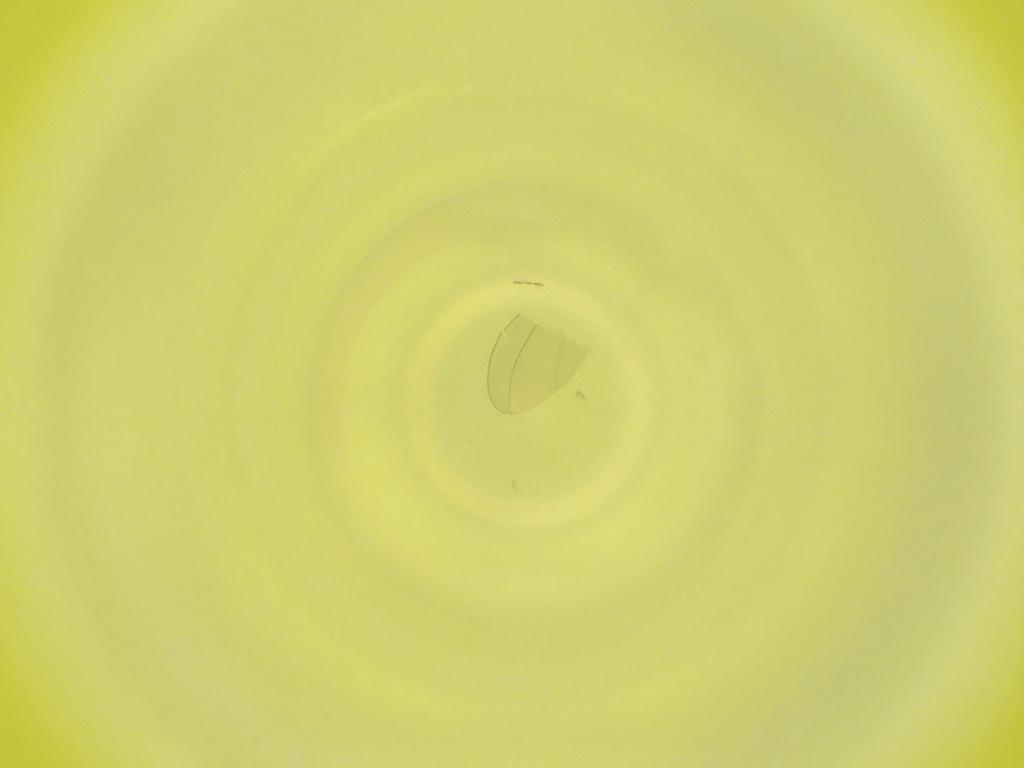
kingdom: Animalia
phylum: Arthropoda
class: Insecta
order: Diptera
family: Cecidomyiidae
